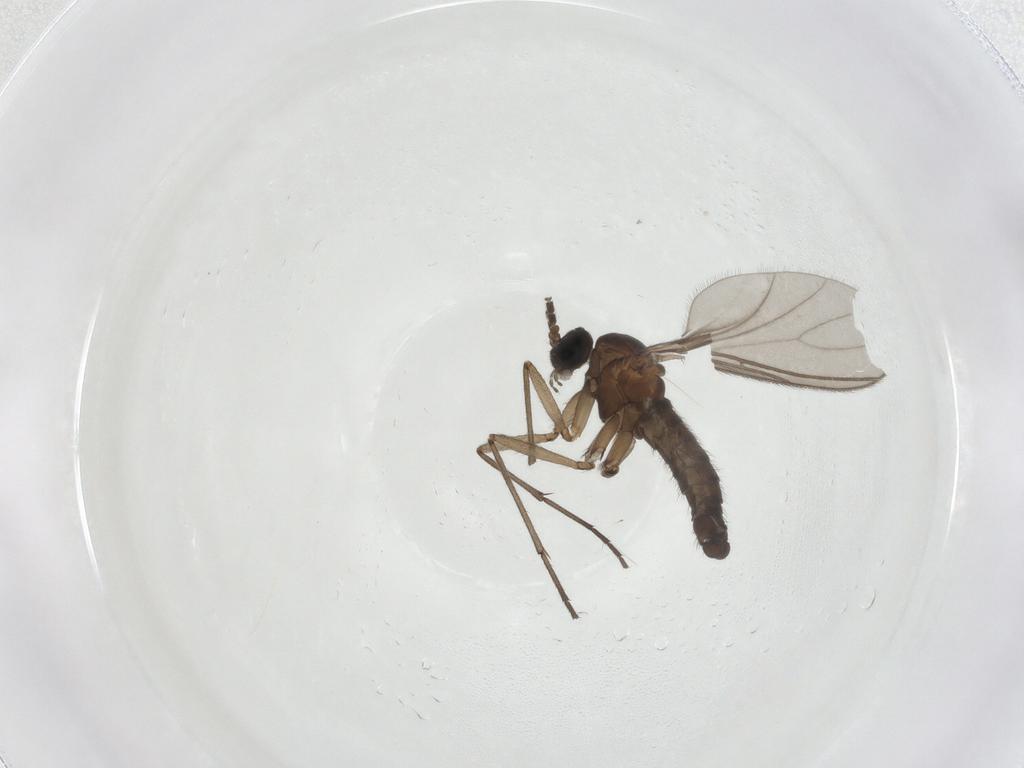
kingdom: Animalia
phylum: Arthropoda
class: Insecta
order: Diptera
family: Sciaridae
